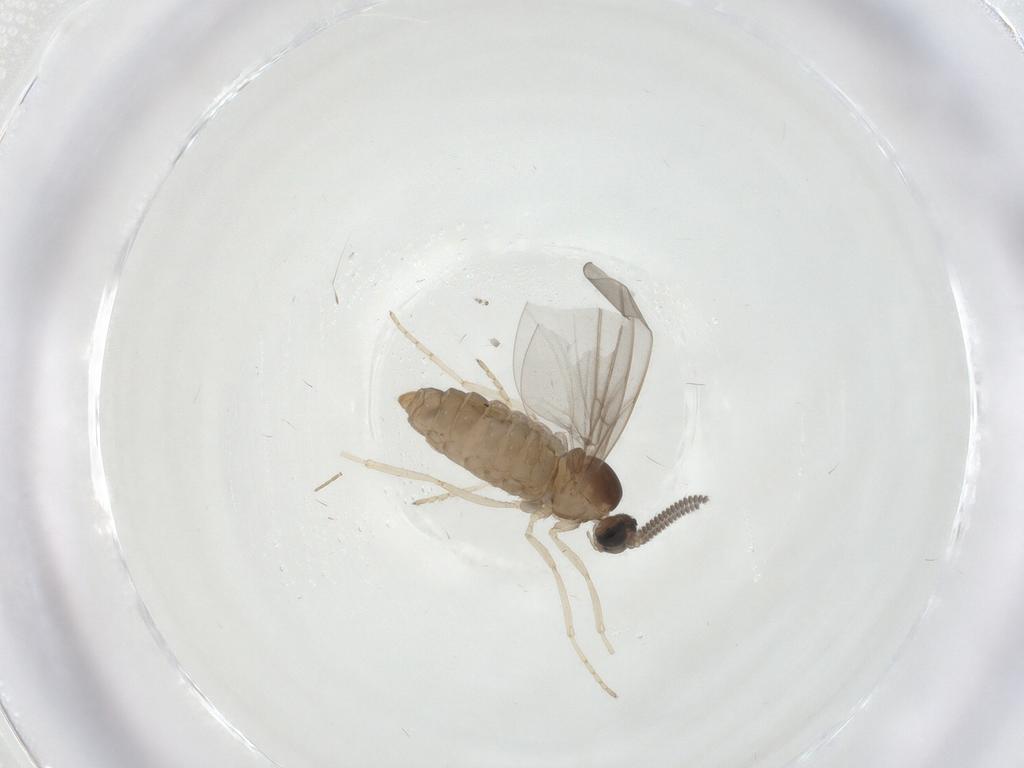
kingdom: Animalia
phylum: Arthropoda
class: Insecta
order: Diptera
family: Cecidomyiidae
